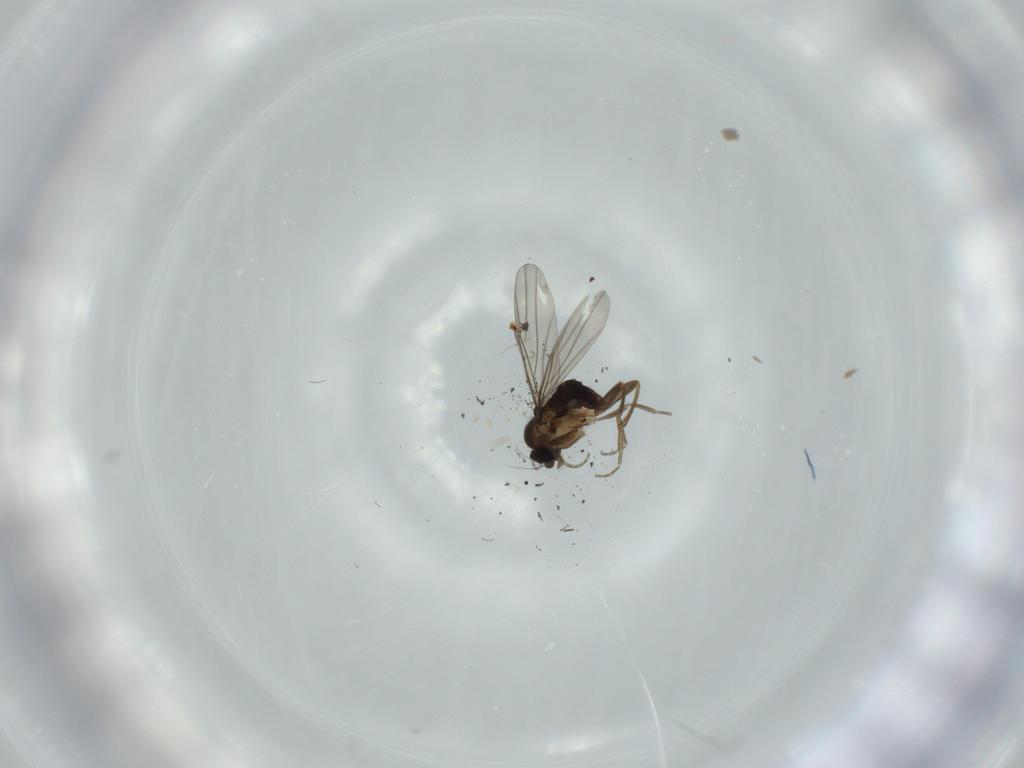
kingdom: Animalia
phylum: Arthropoda
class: Insecta
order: Diptera
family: Phoridae
